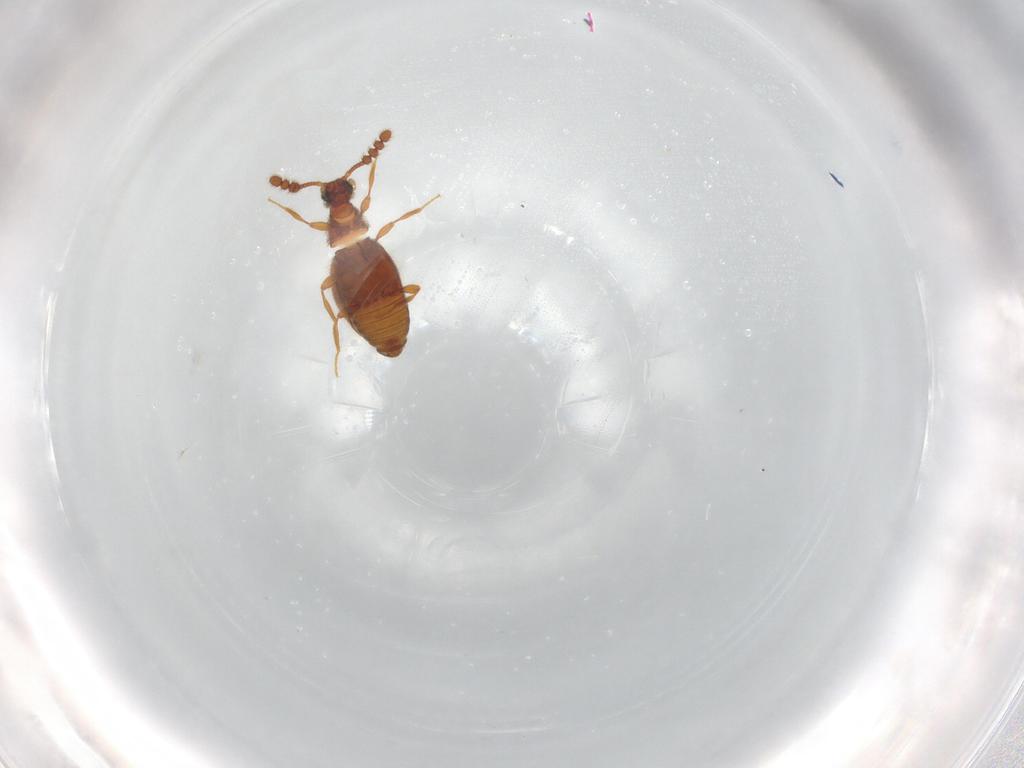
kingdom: Animalia
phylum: Arthropoda
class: Insecta
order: Coleoptera
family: Staphylinidae
